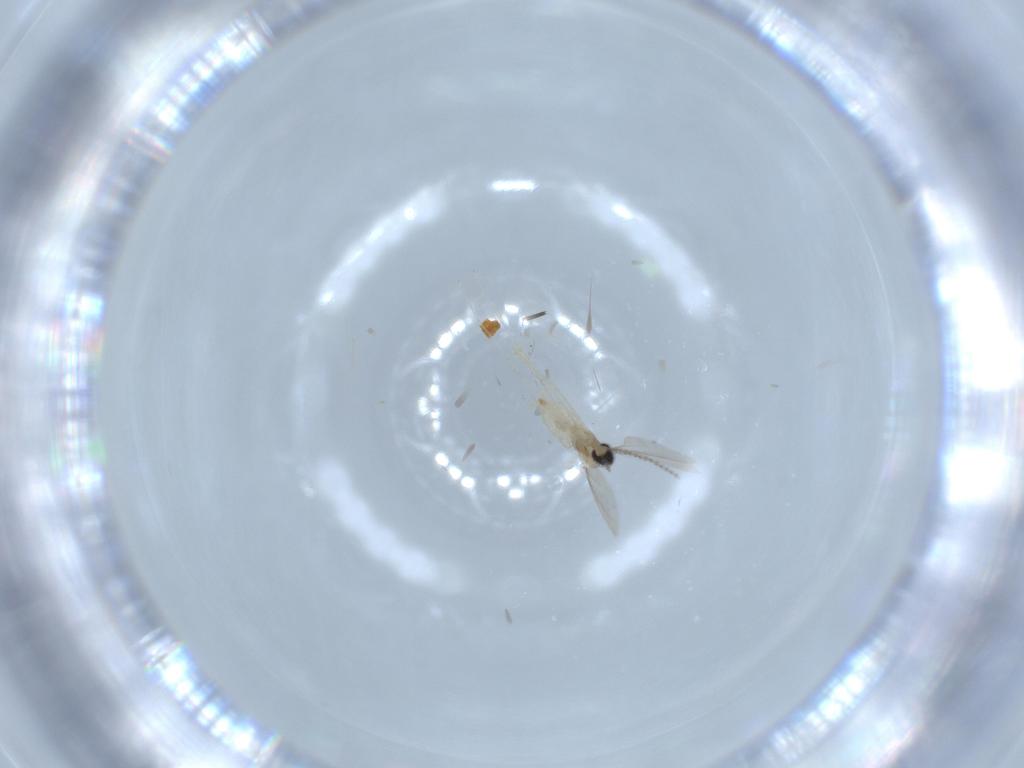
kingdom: Animalia
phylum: Arthropoda
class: Insecta
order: Diptera
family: Cecidomyiidae
